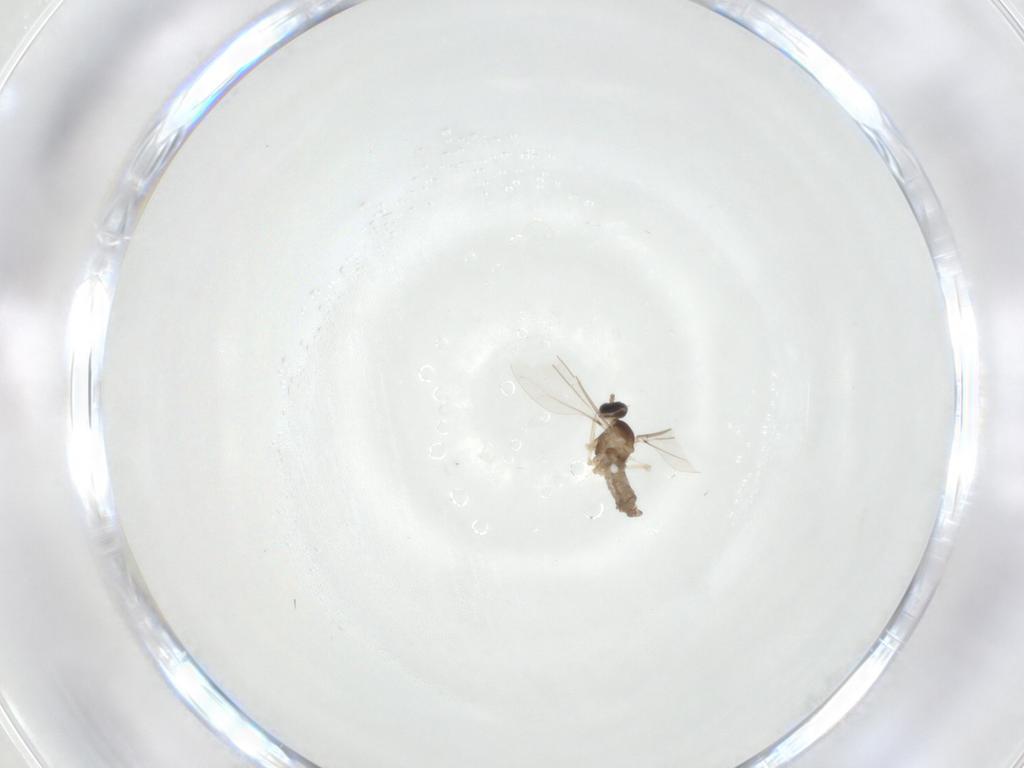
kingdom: Animalia
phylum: Arthropoda
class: Insecta
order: Diptera
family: Cecidomyiidae
